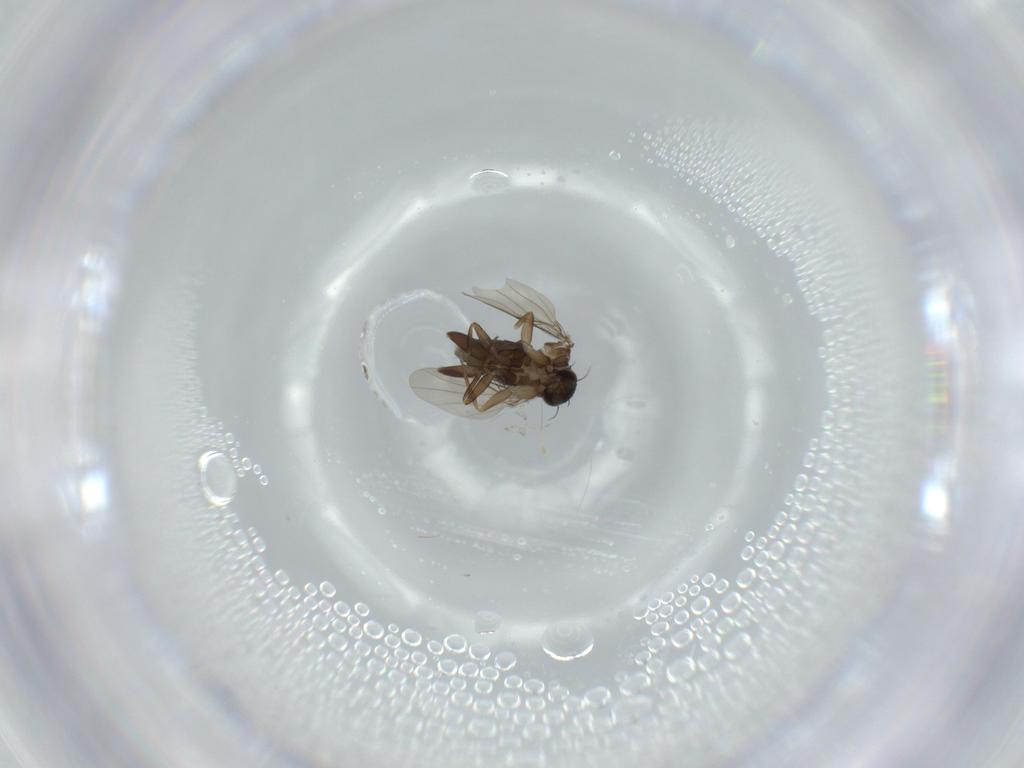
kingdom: Animalia
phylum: Arthropoda
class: Insecta
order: Diptera
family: Phoridae
